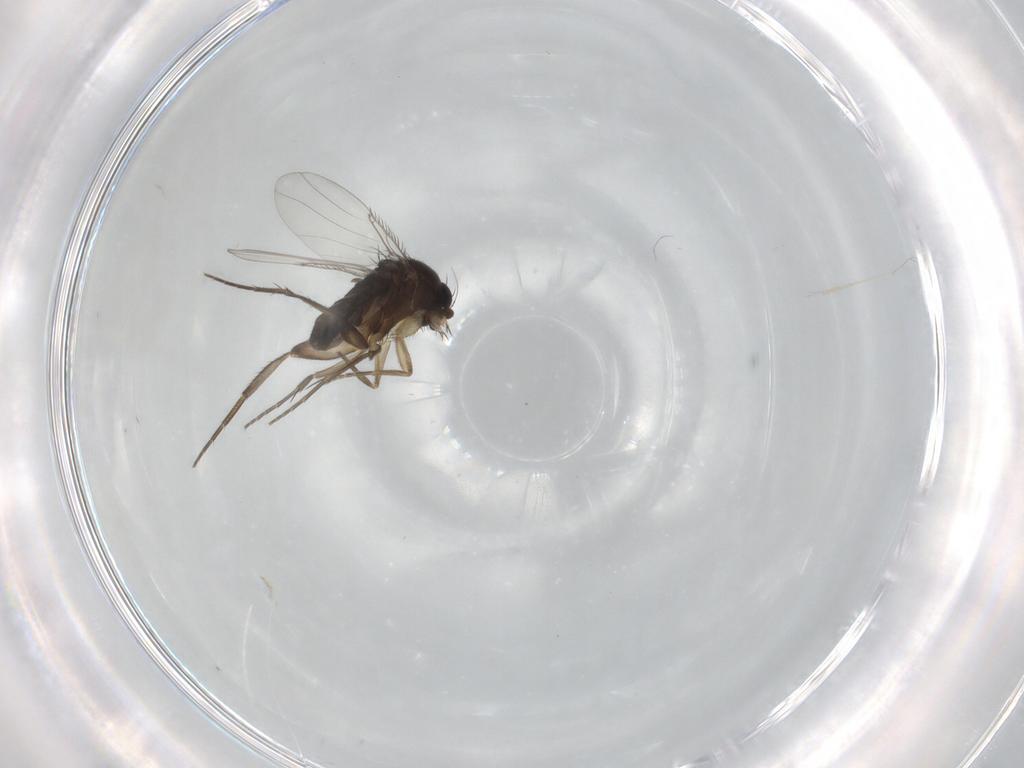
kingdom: Animalia
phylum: Arthropoda
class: Insecta
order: Diptera
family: Phoridae
